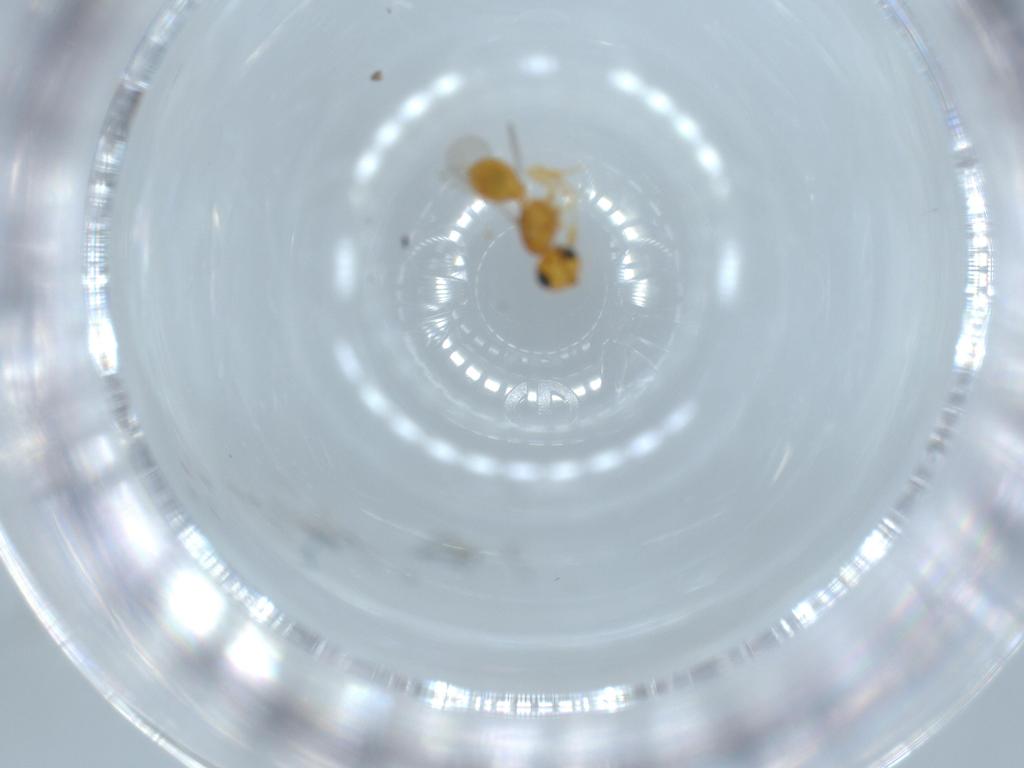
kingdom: Animalia
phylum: Arthropoda
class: Insecta
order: Hymenoptera
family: Scelionidae
